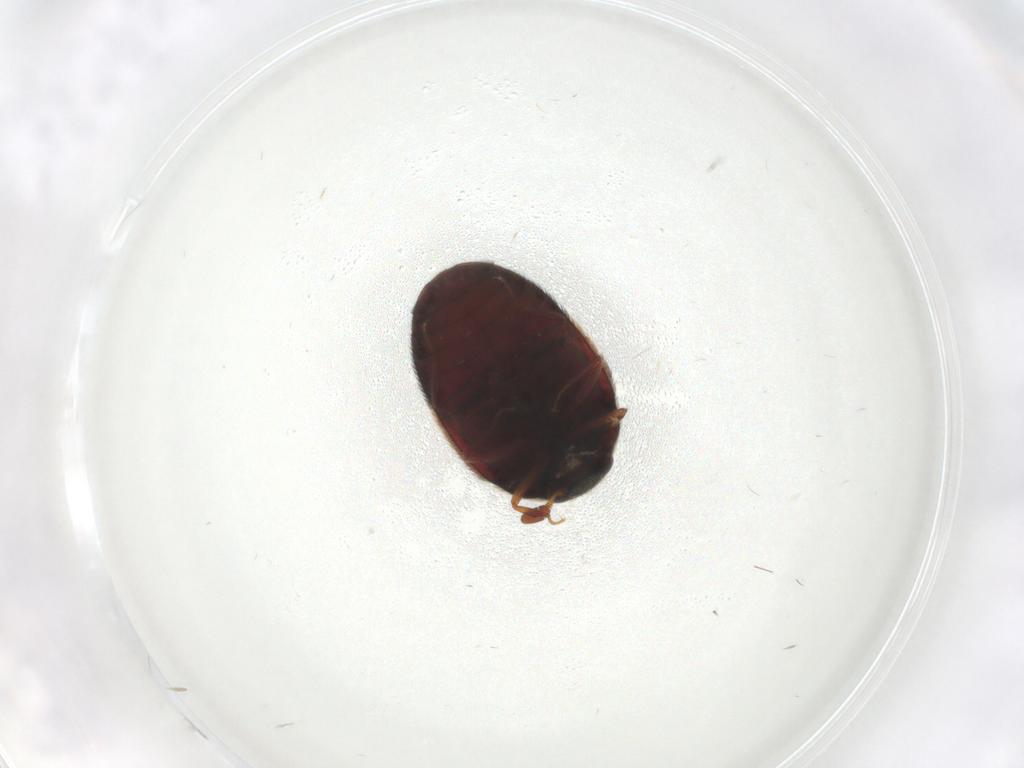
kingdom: Animalia
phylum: Arthropoda
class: Insecta
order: Coleoptera
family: Dermestidae
